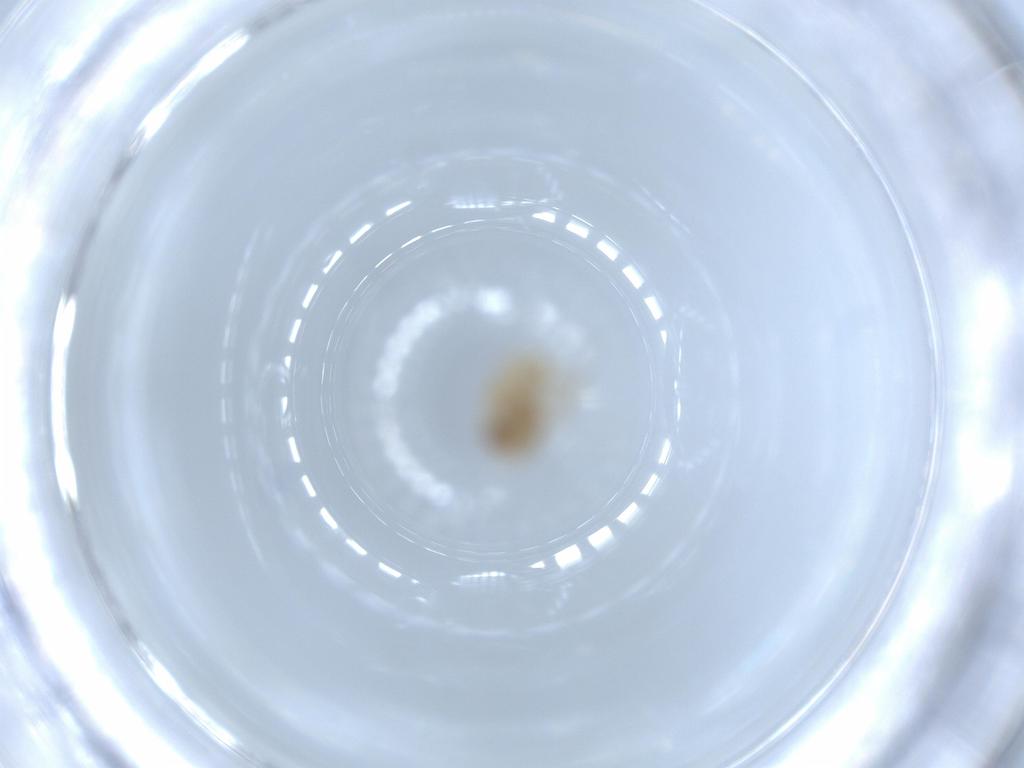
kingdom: Animalia
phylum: Arthropoda
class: Insecta
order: Hemiptera
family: Acanaloniidae
